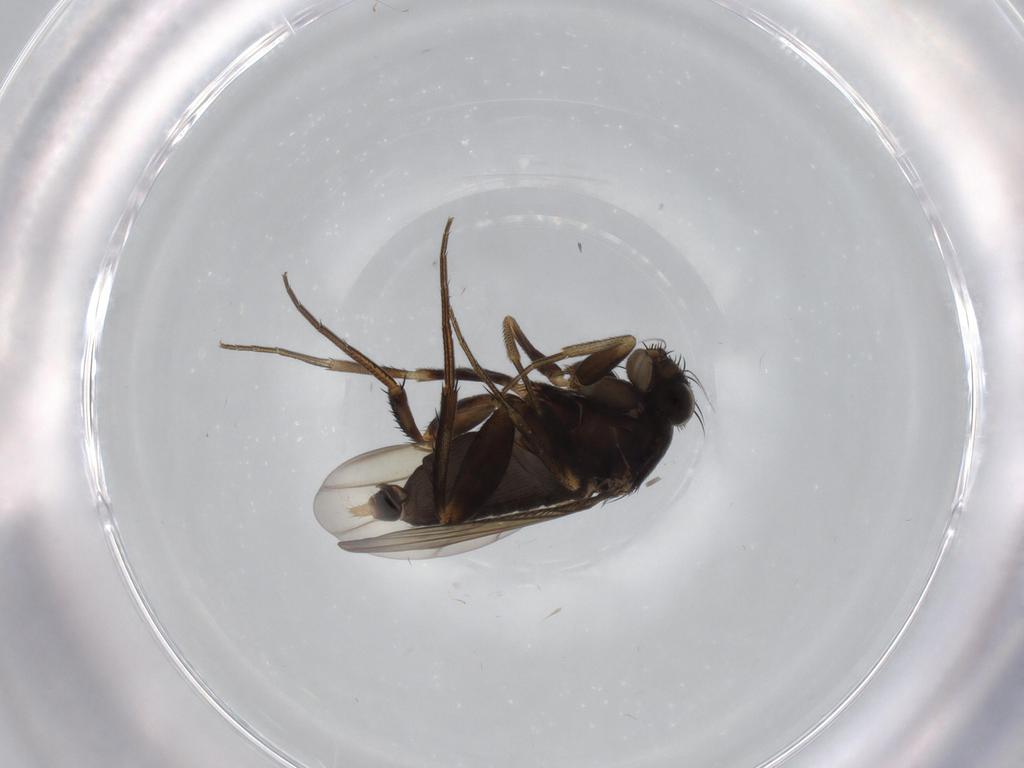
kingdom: Animalia
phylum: Arthropoda
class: Insecta
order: Diptera
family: Phoridae
